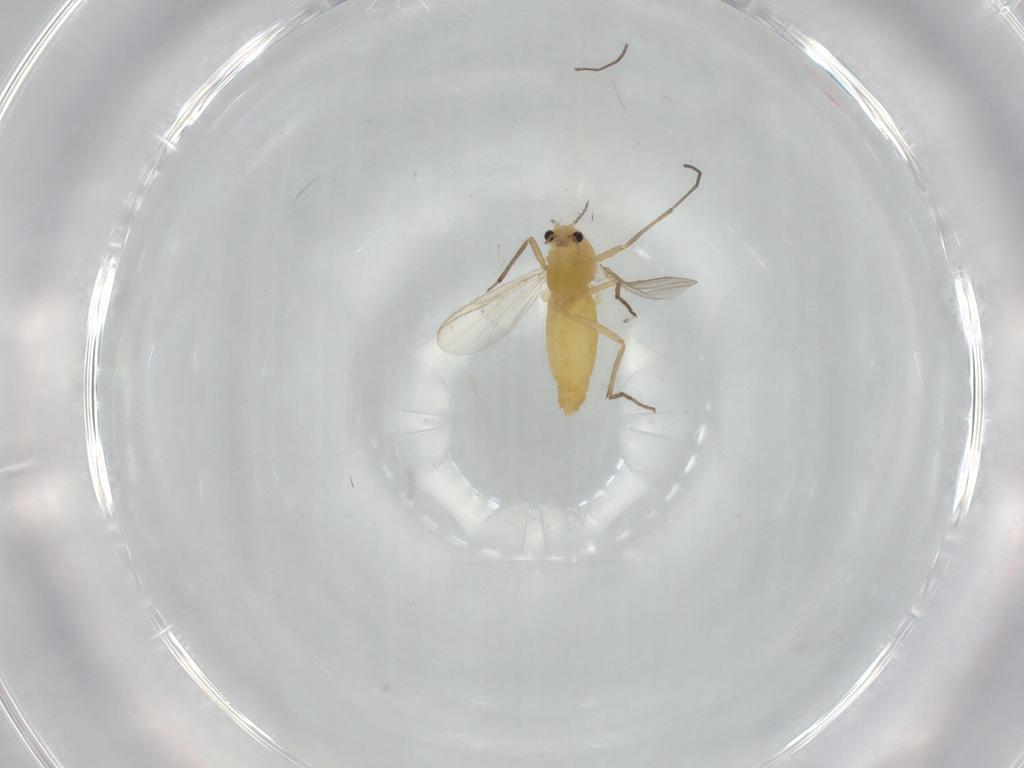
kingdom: Animalia
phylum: Arthropoda
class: Insecta
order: Diptera
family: Chironomidae
